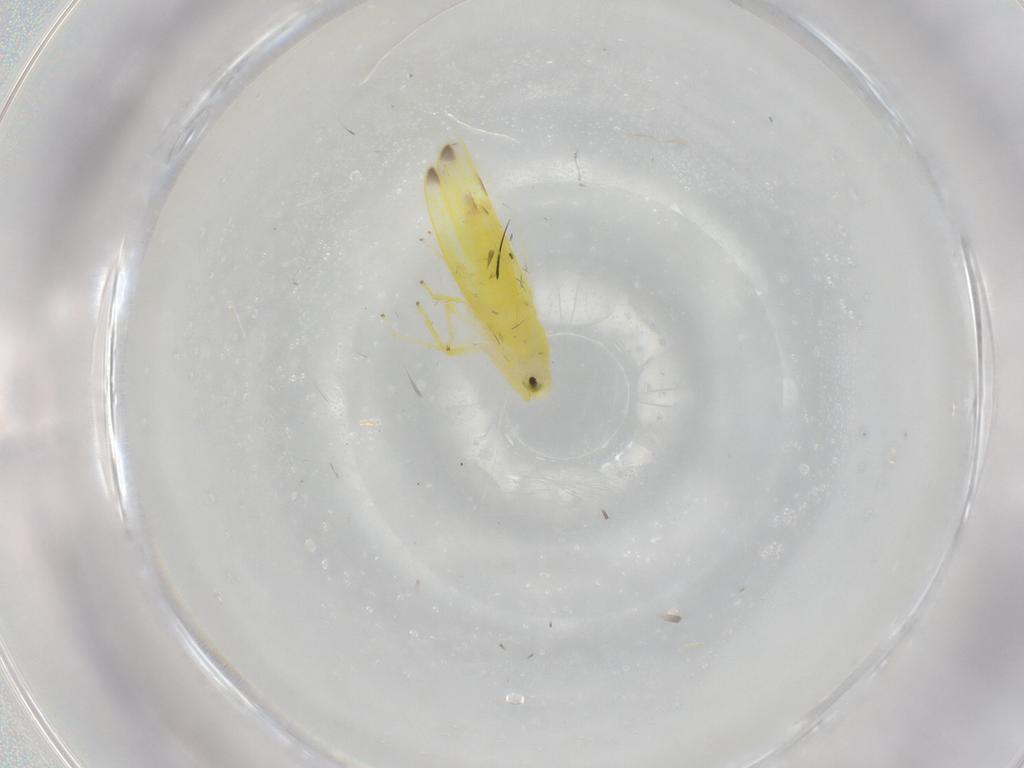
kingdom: Animalia
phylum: Arthropoda
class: Insecta
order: Hemiptera
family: Cicadellidae
